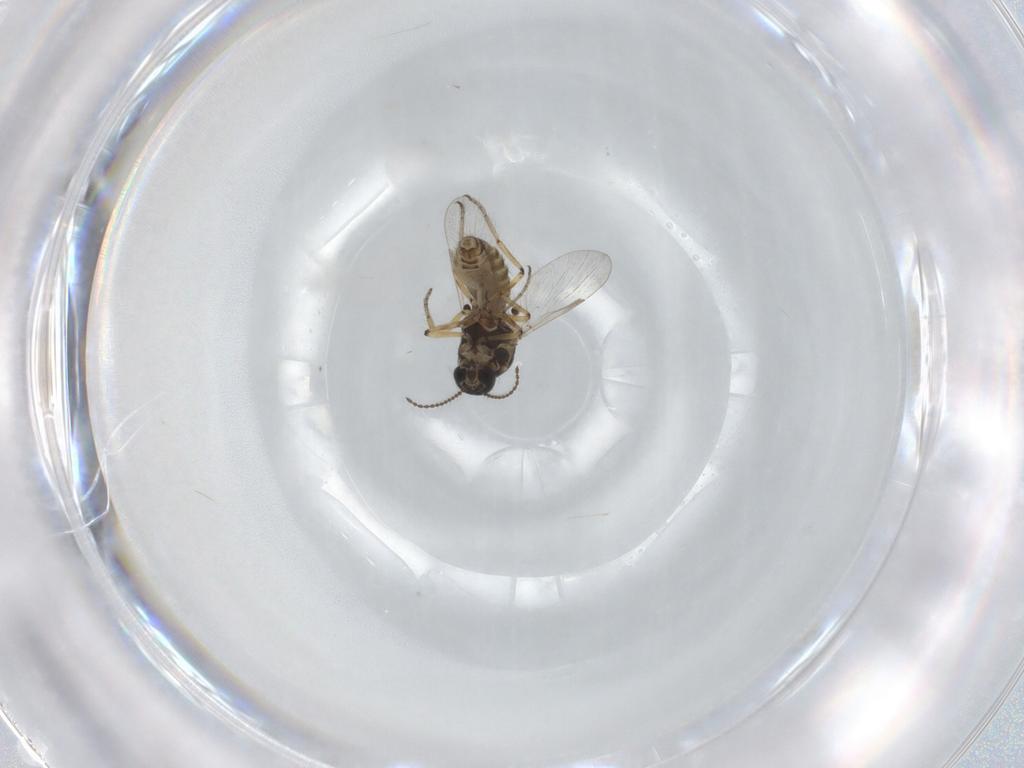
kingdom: Animalia
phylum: Arthropoda
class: Insecta
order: Diptera
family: Ceratopogonidae
